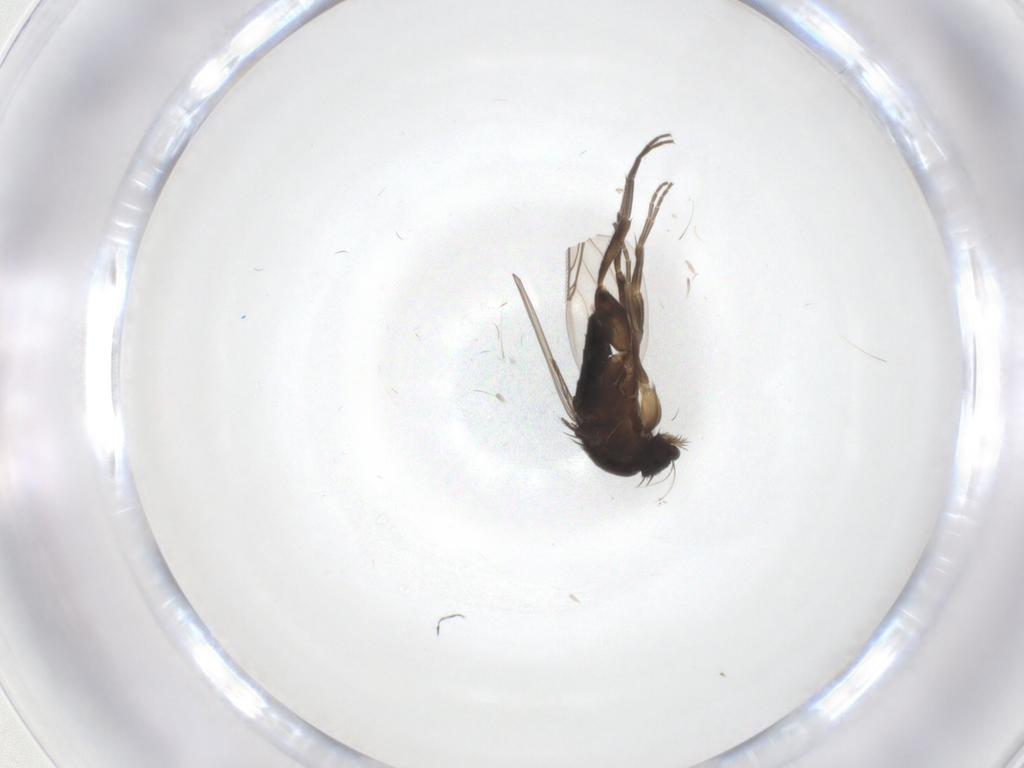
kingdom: Animalia
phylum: Arthropoda
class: Insecta
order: Diptera
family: Phoridae
